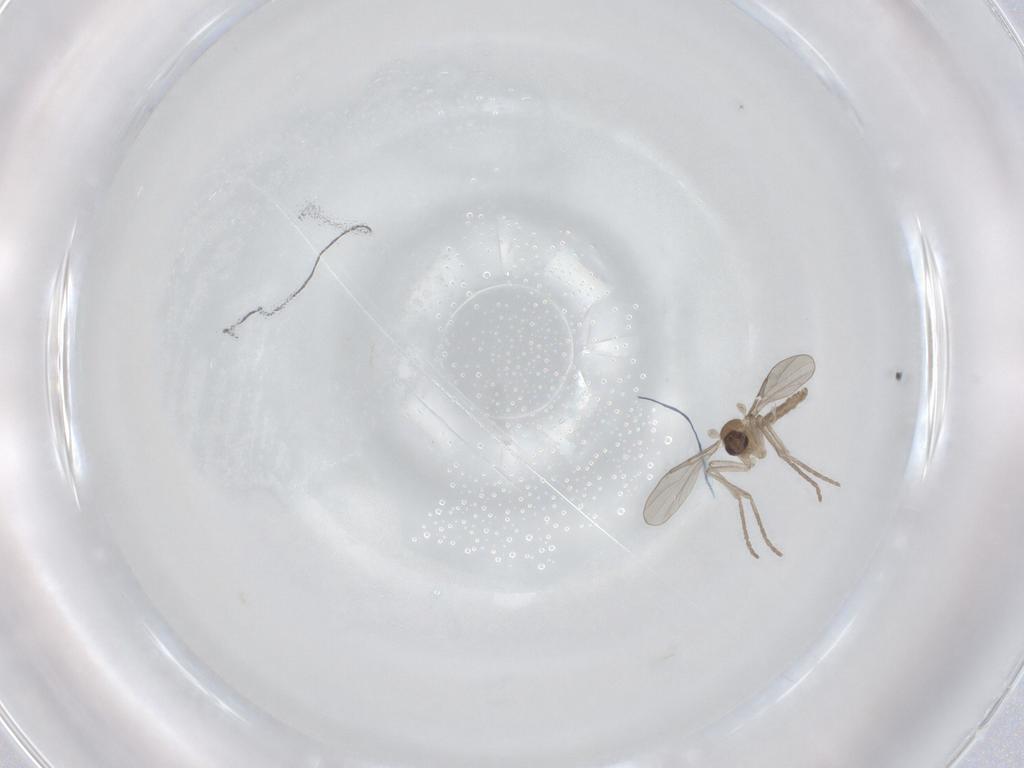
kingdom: Animalia
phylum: Arthropoda
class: Insecta
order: Diptera
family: Cecidomyiidae
